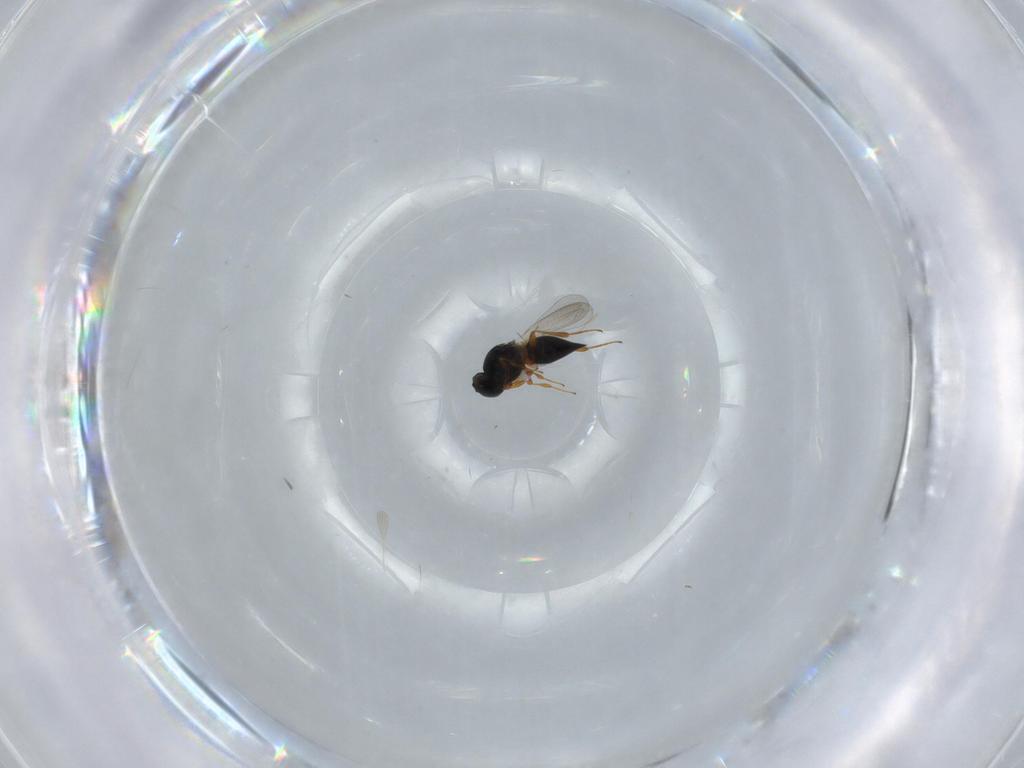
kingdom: Animalia
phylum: Arthropoda
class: Insecta
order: Hymenoptera
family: Platygastridae
